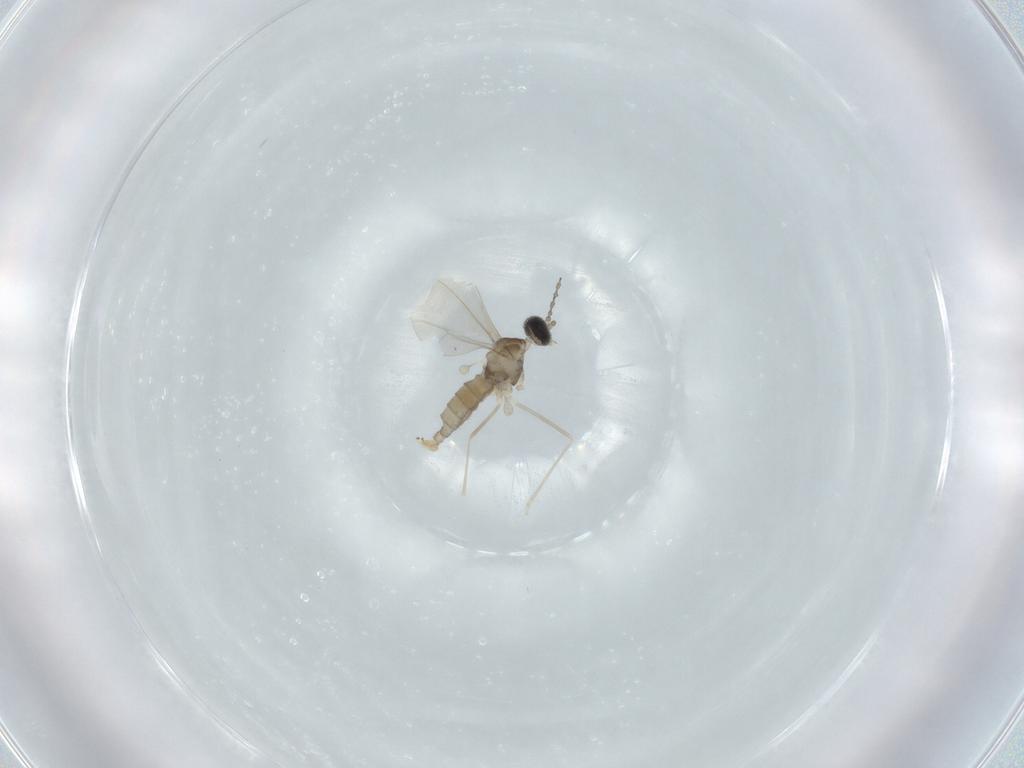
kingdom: Animalia
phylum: Arthropoda
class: Insecta
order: Diptera
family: Cecidomyiidae
